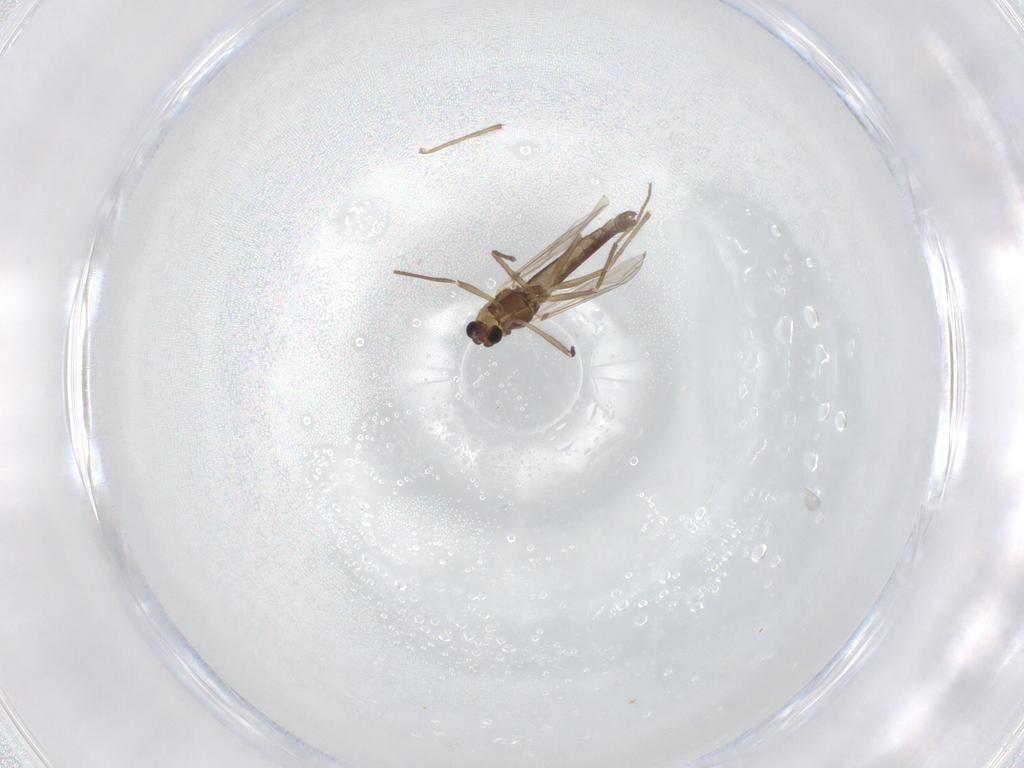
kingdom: Animalia
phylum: Arthropoda
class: Insecta
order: Diptera
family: Chironomidae
